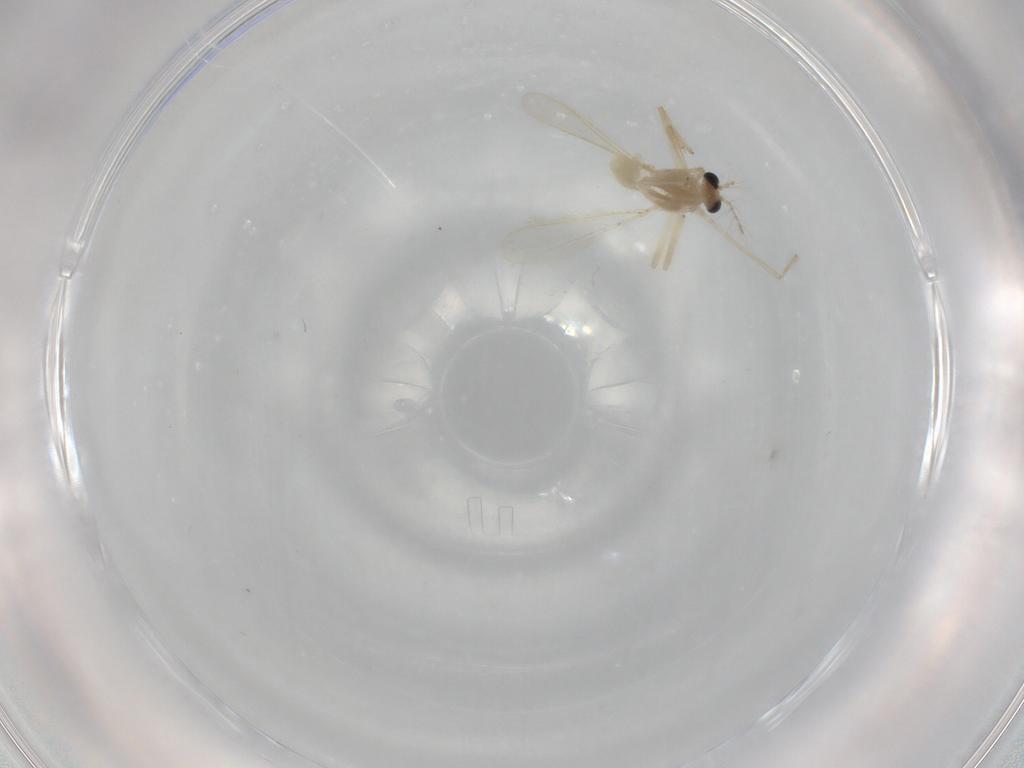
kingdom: Animalia
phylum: Arthropoda
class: Insecta
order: Diptera
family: Chironomidae
